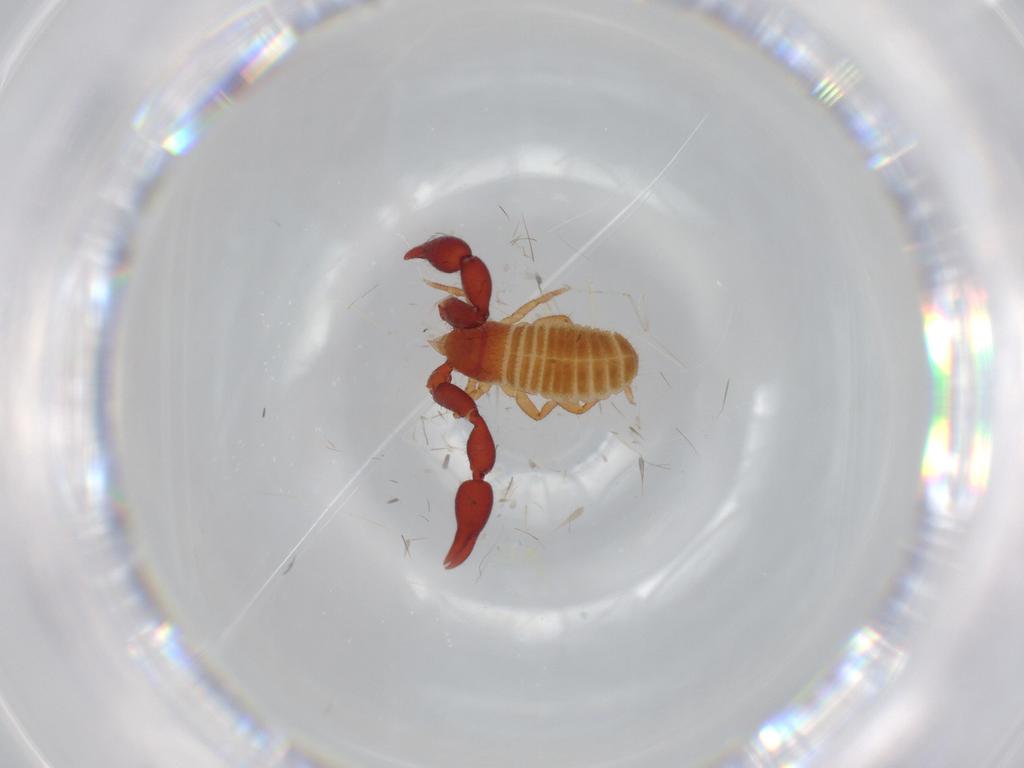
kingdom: Animalia
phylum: Arthropoda
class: Arachnida
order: Pseudoscorpiones
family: Chernetidae
